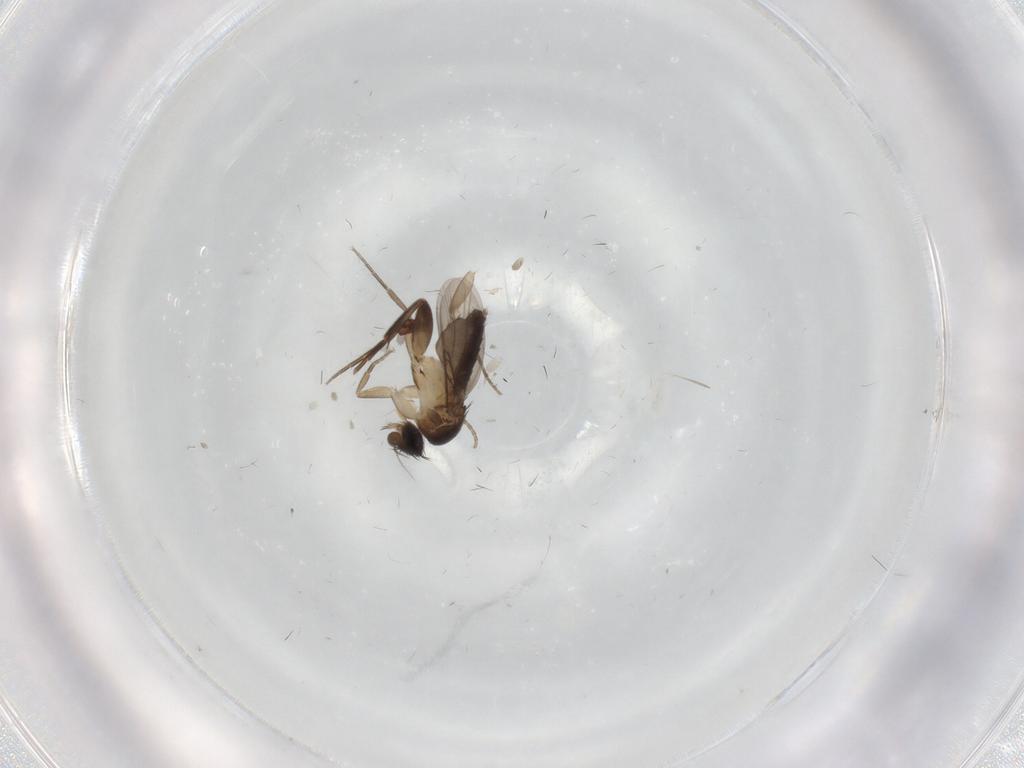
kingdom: Animalia
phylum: Arthropoda
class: Insecta
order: Diptera
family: Phoridae
